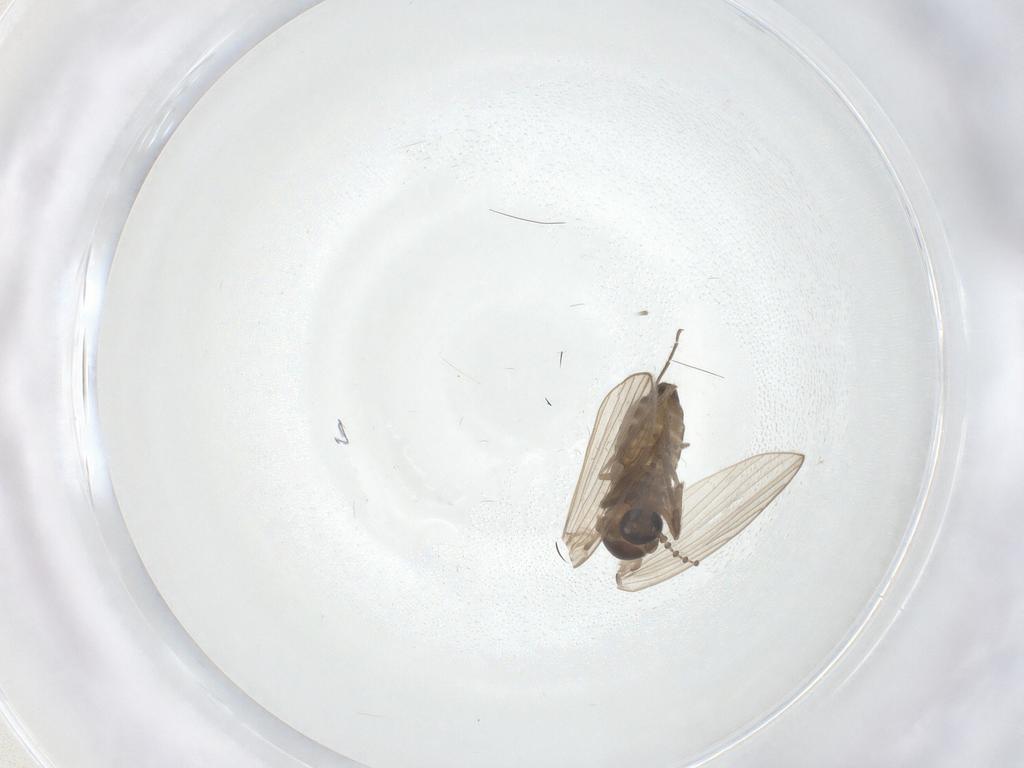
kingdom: Animalia
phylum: Arthropoda
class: Insecta
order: Diptera
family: Psychodidae
